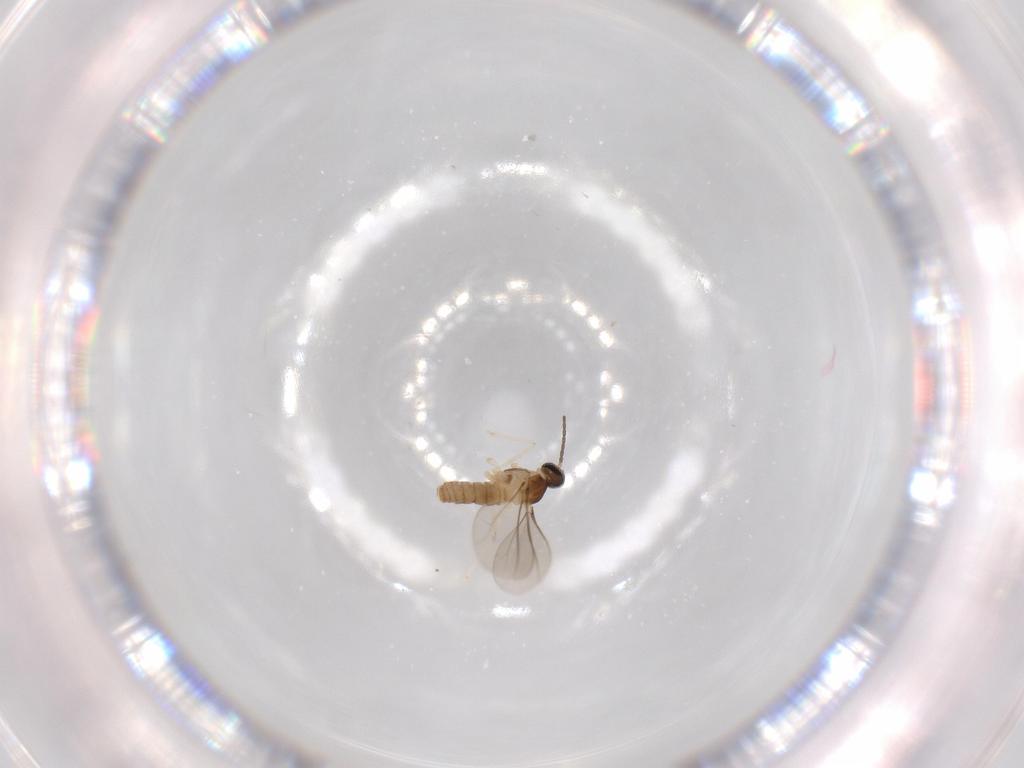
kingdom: Animalia
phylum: Arthropoda
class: Insecta
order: Diptera
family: Cecidomyiidae
